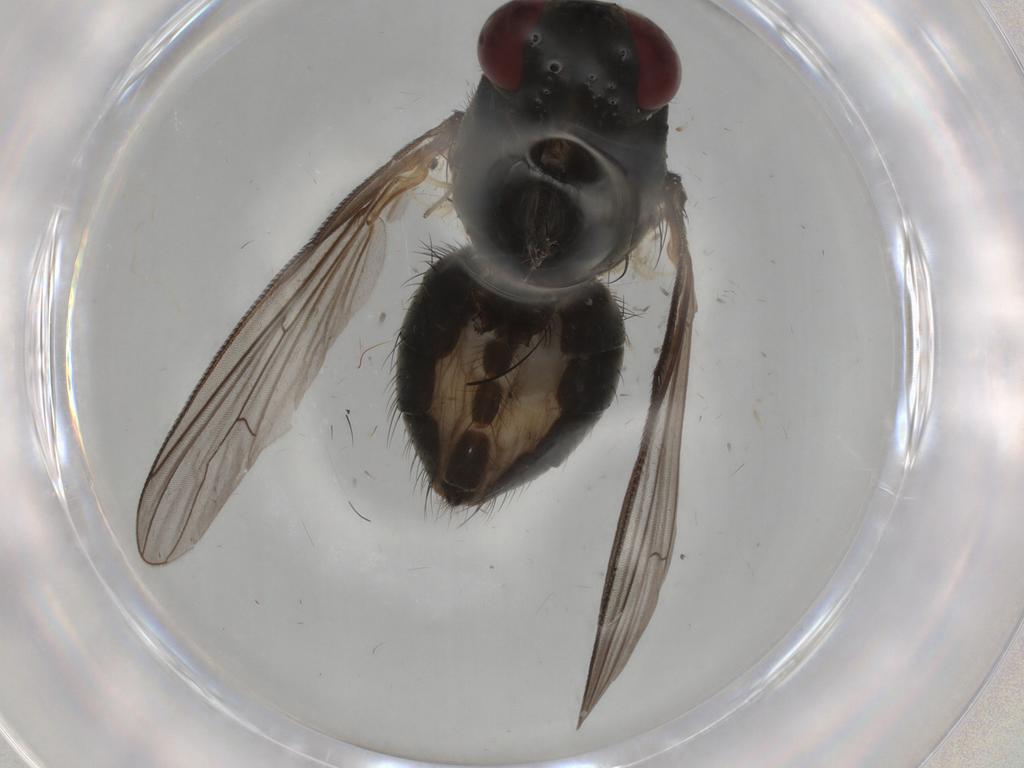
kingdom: Animalia
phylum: Arthropoda
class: Insecta
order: Diptera
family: Muscidae
